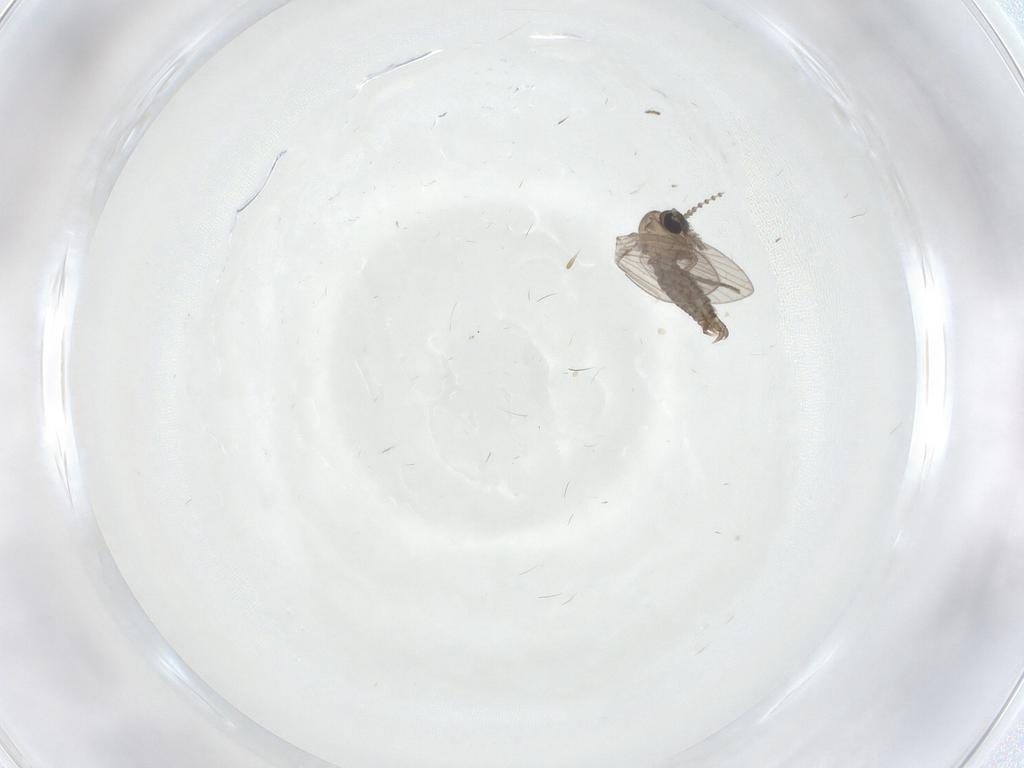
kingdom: Animalia
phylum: Arthropoda
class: Insecta
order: Diptera
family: Psychodidae
